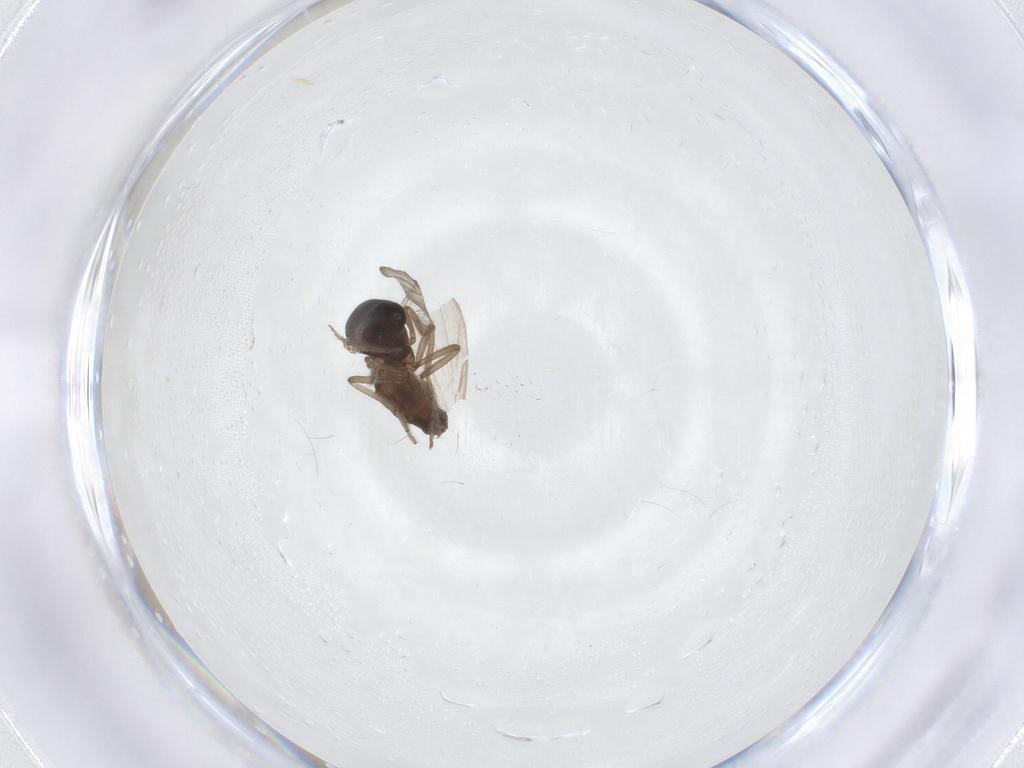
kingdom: Animalia
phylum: Arthropoda
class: Insecta
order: Diptera
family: Ceratopogonidae
